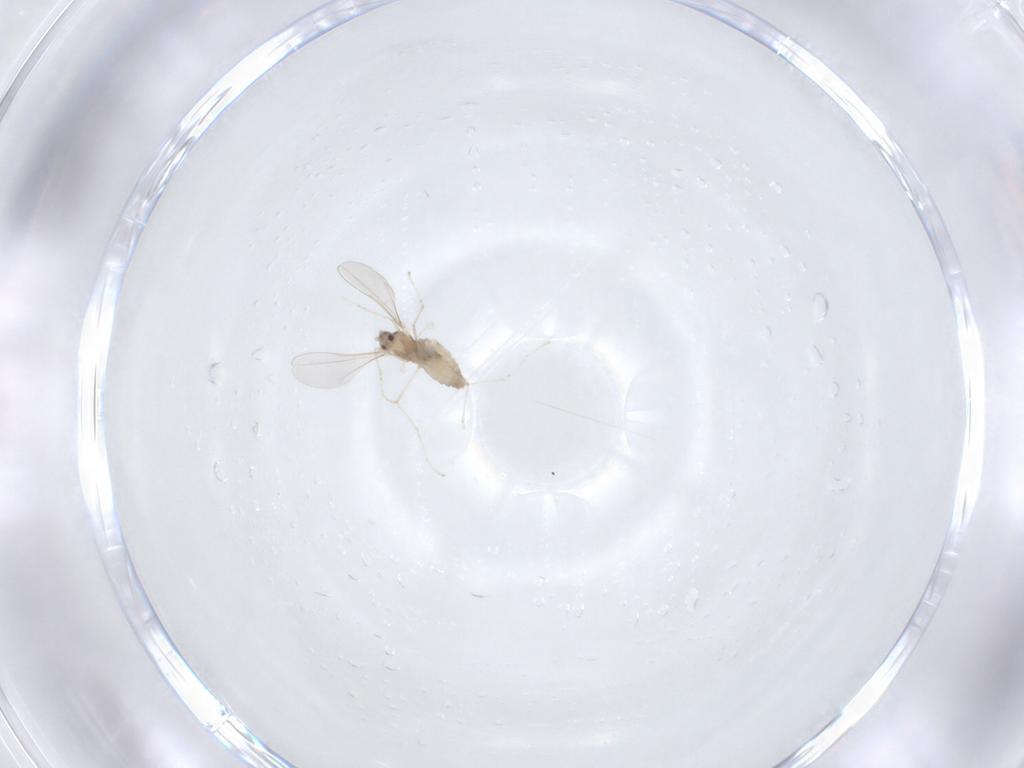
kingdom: Animalia
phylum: Arthropoda
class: Insecta
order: Diptera
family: Cecidomyiidae
